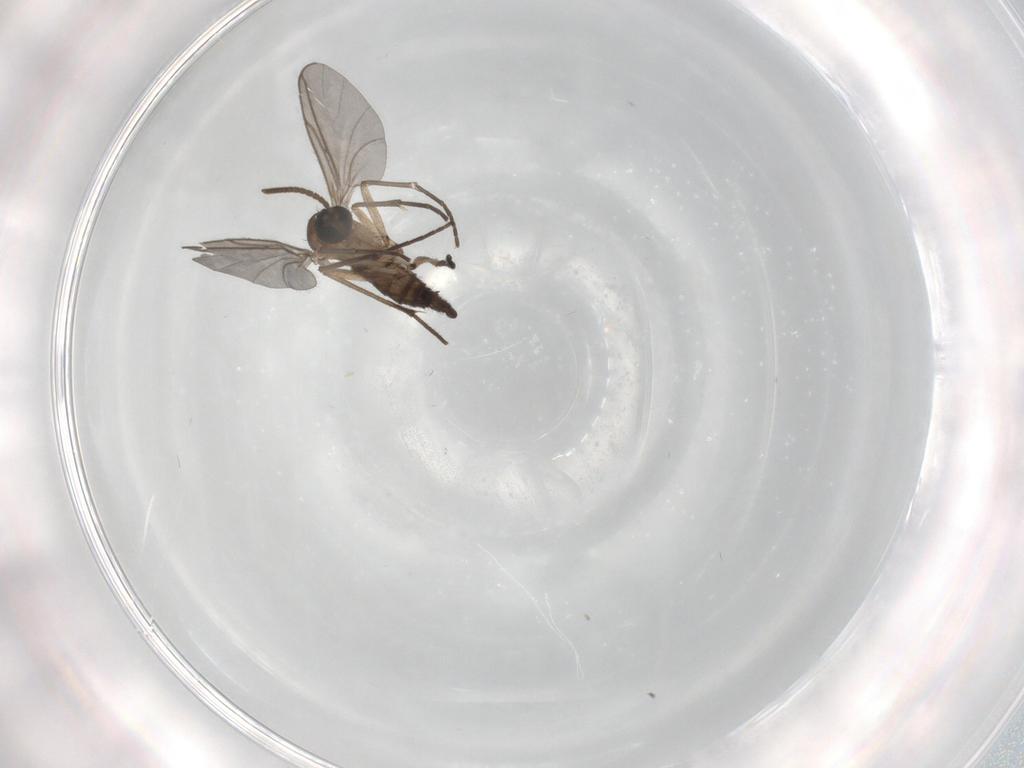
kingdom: Animalia
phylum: Arthropoda
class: Insecta
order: Diptera
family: Sciaridae
